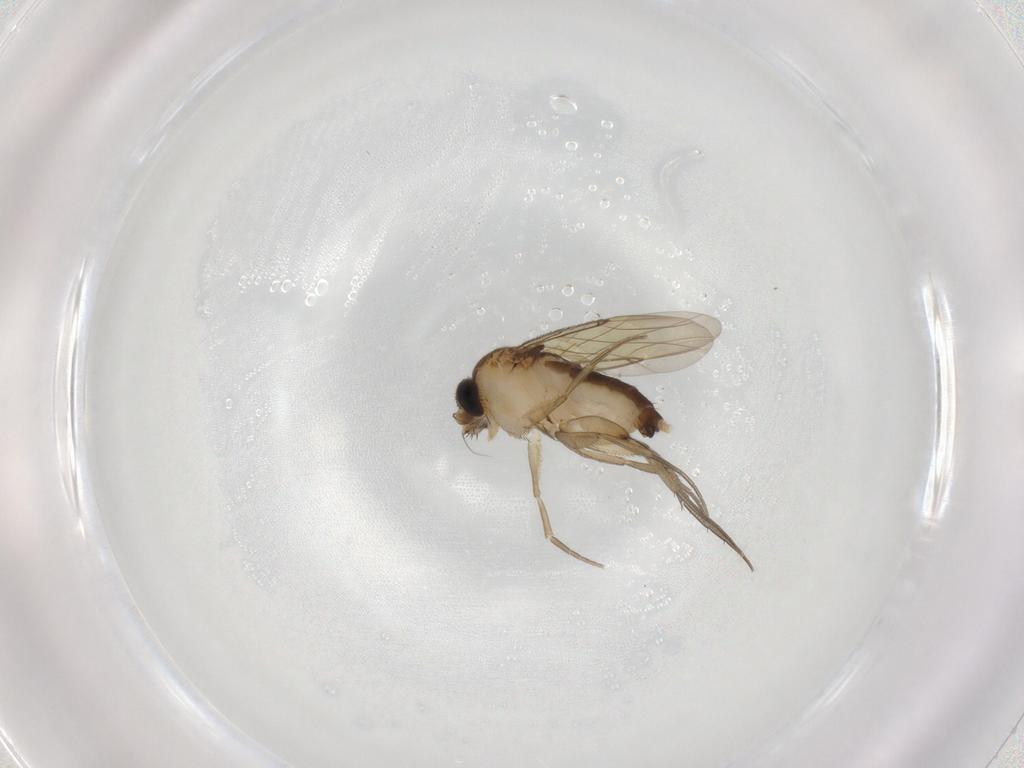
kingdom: Animalia
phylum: Arthropoda
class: Insecta
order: Diptera
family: Phoridae
